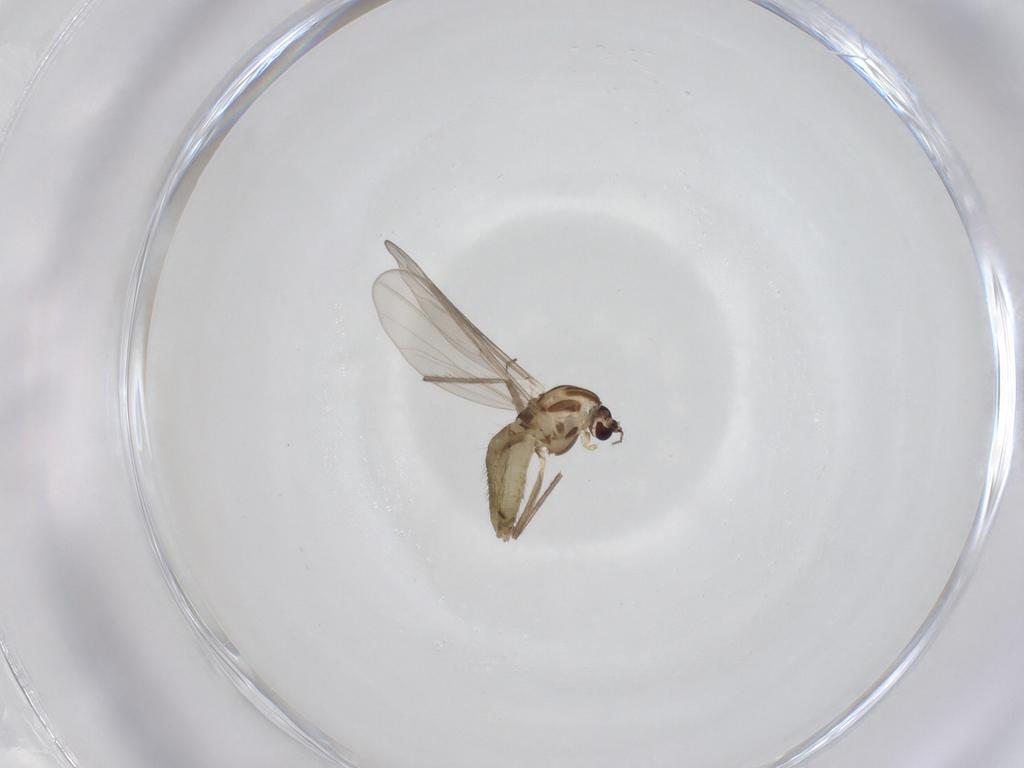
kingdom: Animalia
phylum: Arthropoda
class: Insecta
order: Diptera
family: Chironomidae
